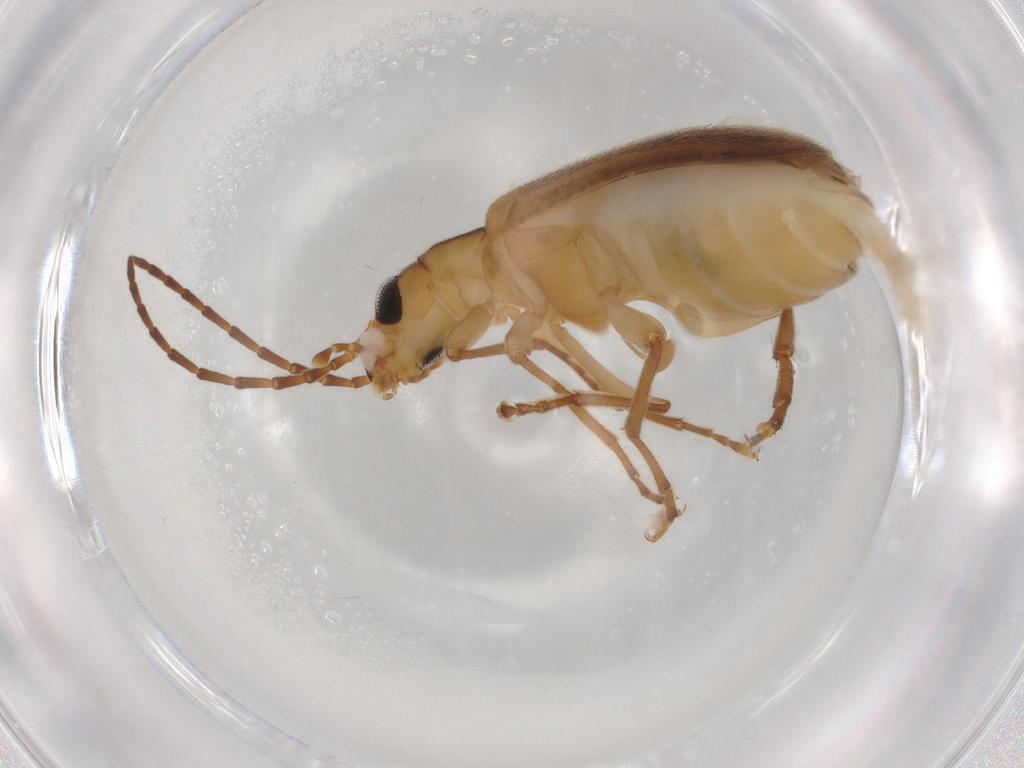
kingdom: Animalia
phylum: Arthropoda
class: Insecta
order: Coleoptera
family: Oedemeridae
